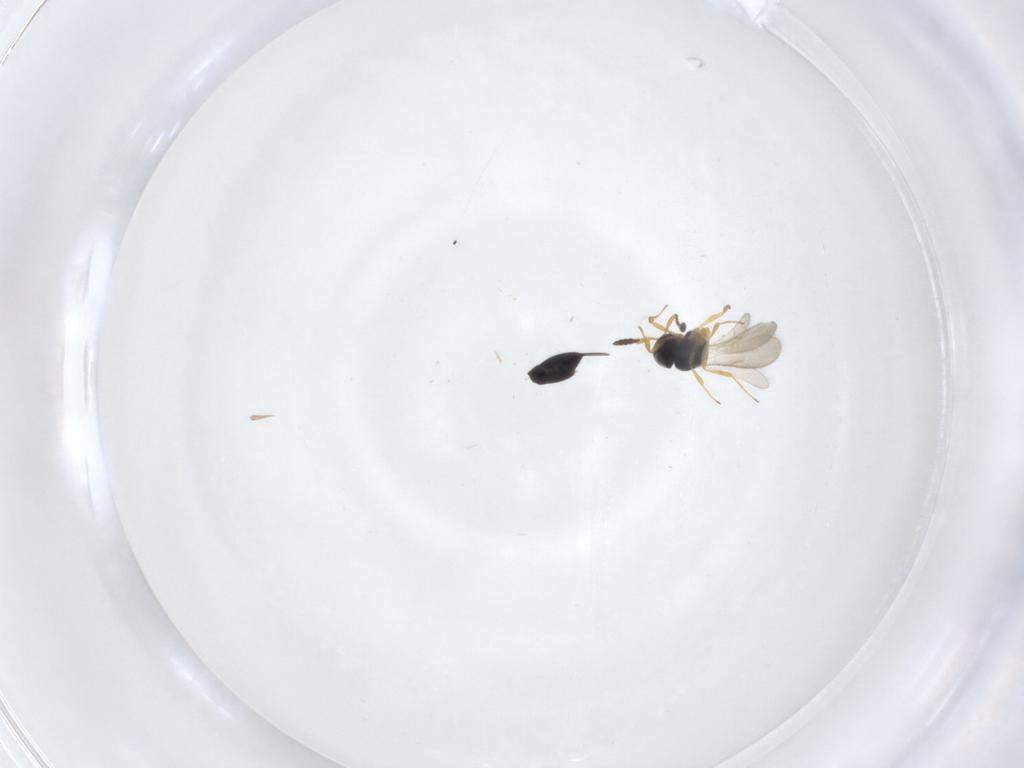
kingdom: Animalia
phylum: Arthropoda
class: Insecta
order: Hymenoptera
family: Scelionidae
